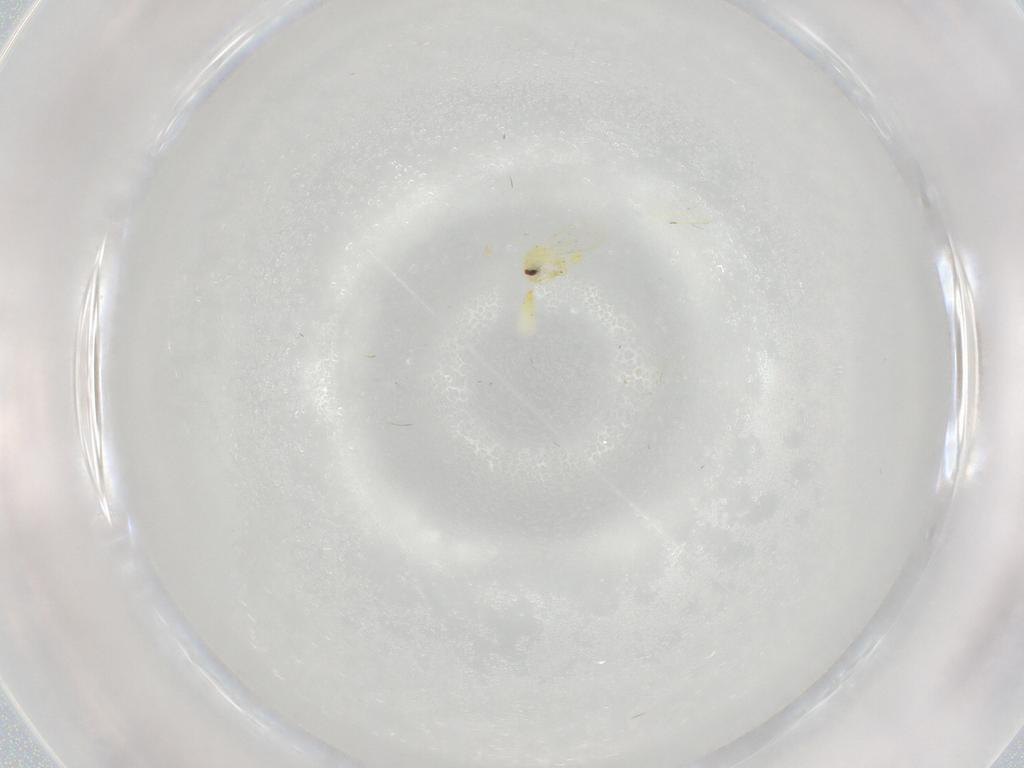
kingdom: Animalia
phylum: Arthropoda
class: Insecta
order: Hemiptera
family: Aleyrodidae
